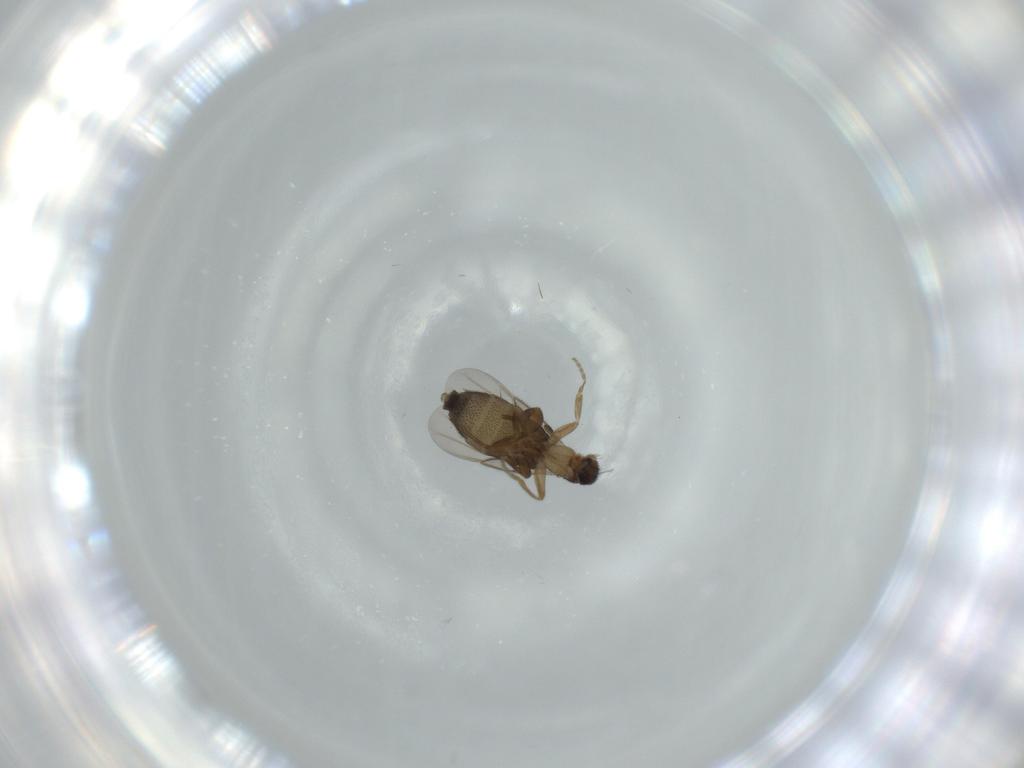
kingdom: Animalia
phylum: Arthropoda
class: Insecta
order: Diptera
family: Phoridae
